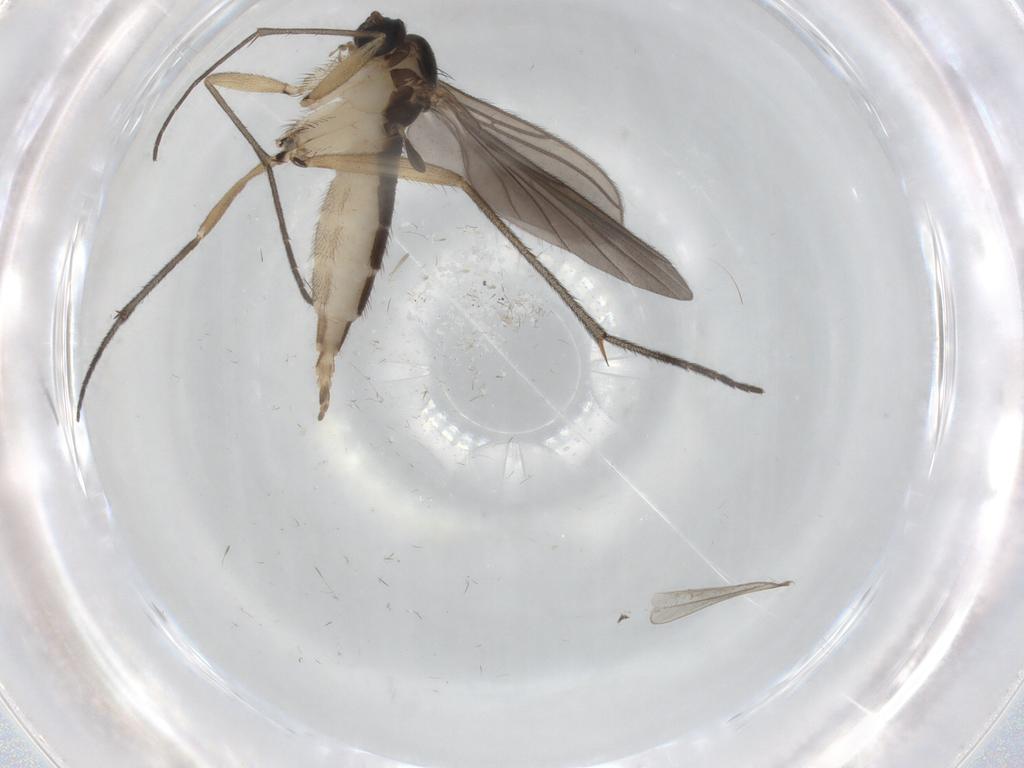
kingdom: Animalia
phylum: Arthropoda
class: Insecta
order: Diptera
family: Sciaridae
